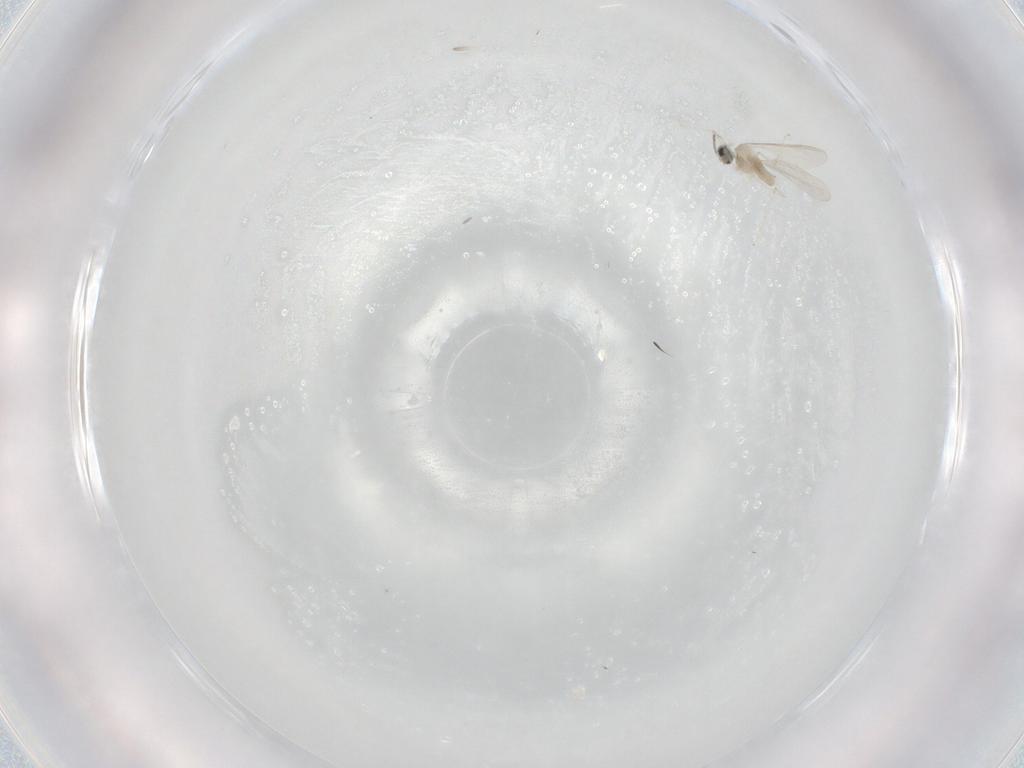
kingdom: Animalia
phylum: Arthropoda
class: Insecta
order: Diptera
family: Cecidomyiidae
